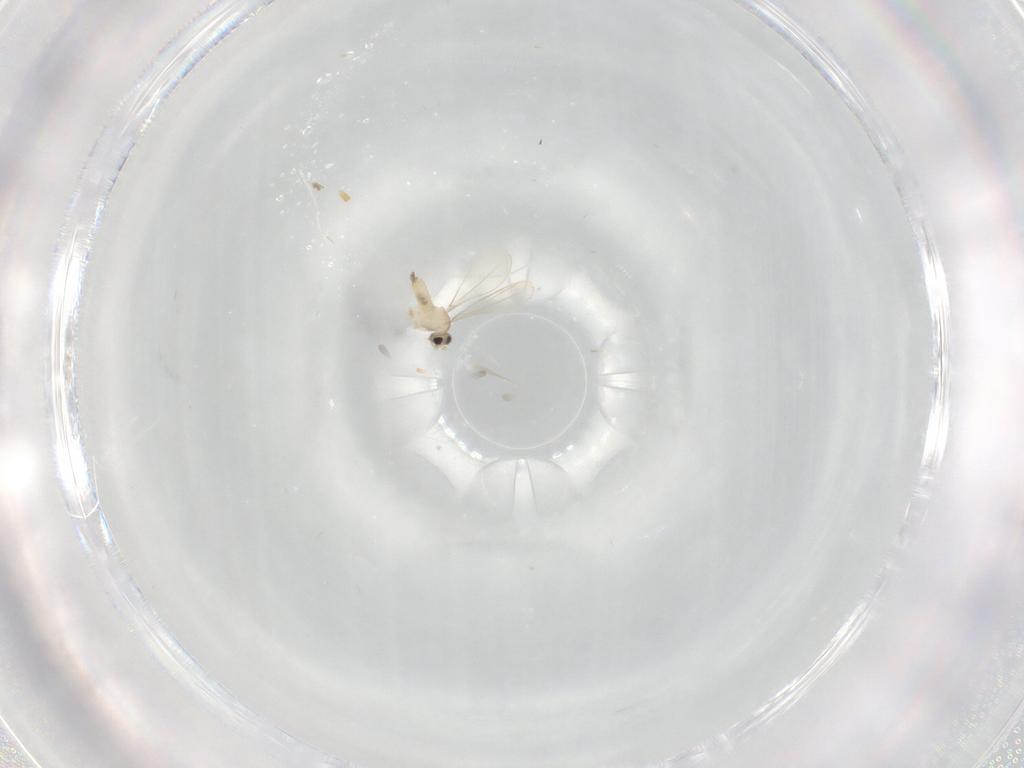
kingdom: Animalia
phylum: Arthropoda
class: Insecta
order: Diptera
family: Cecidomyiidae
